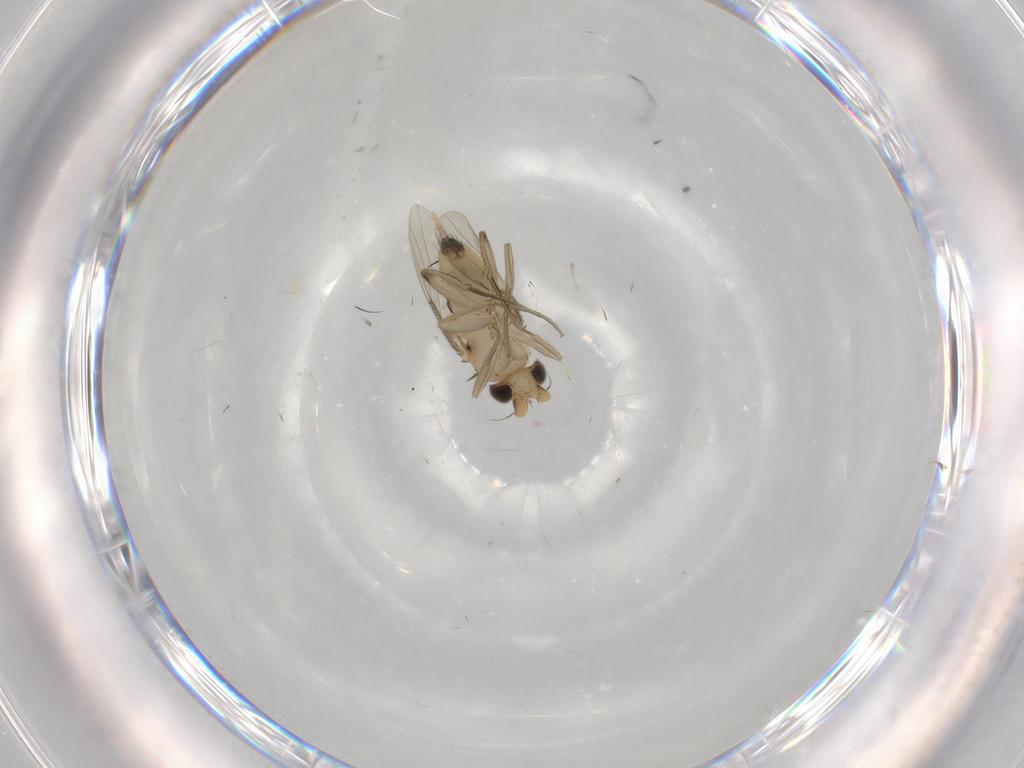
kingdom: Animalia
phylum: Arthropoda
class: Insecta
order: Diptera
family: Phoridae
